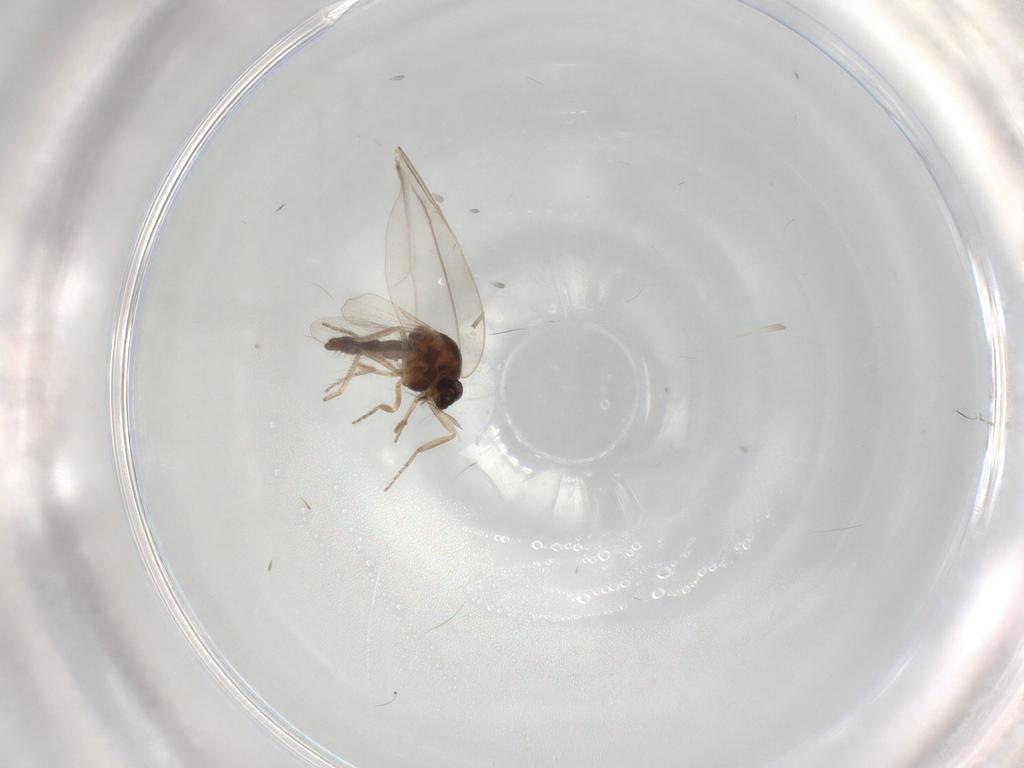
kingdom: Animalia
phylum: Arthropoda
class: Insecta
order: Diptera
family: Ceratopogonidae
